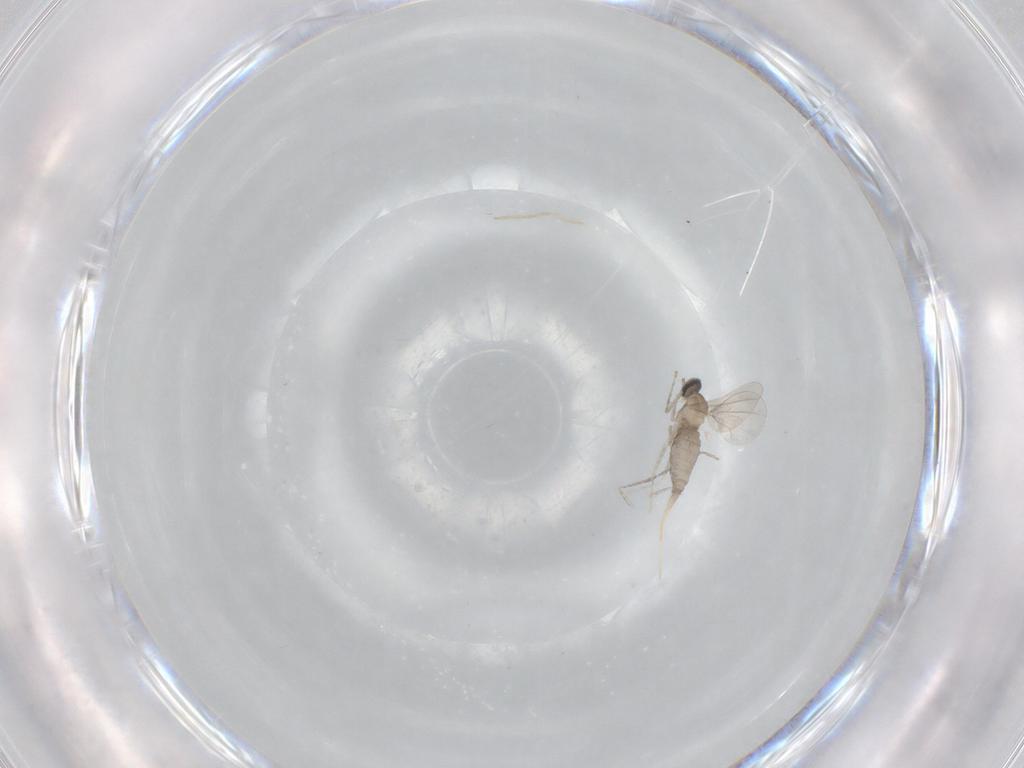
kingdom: Animalia
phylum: Arthropoda
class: Insecta
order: Diptera
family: Cecidomyiidae
